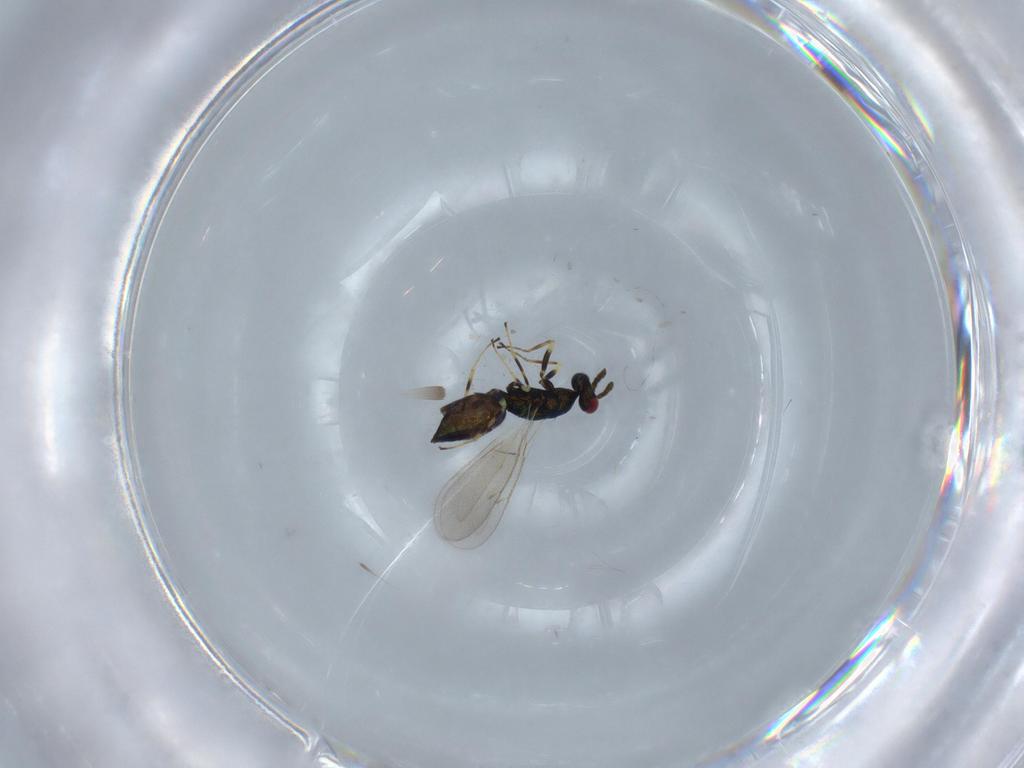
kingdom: Animalia
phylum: Arthropoda
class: Insecta
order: Hymenoptera
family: Eulophidae
